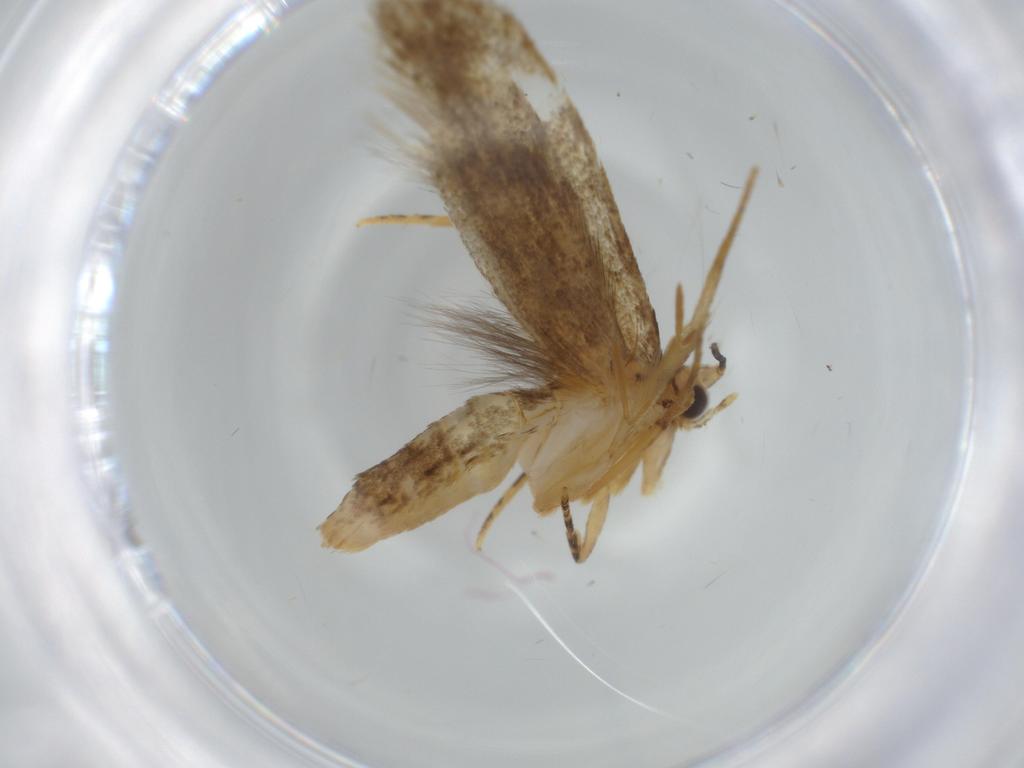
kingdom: Animalia
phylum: Arthropoda
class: Insecta
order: Lepidoptera
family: Tineidae
